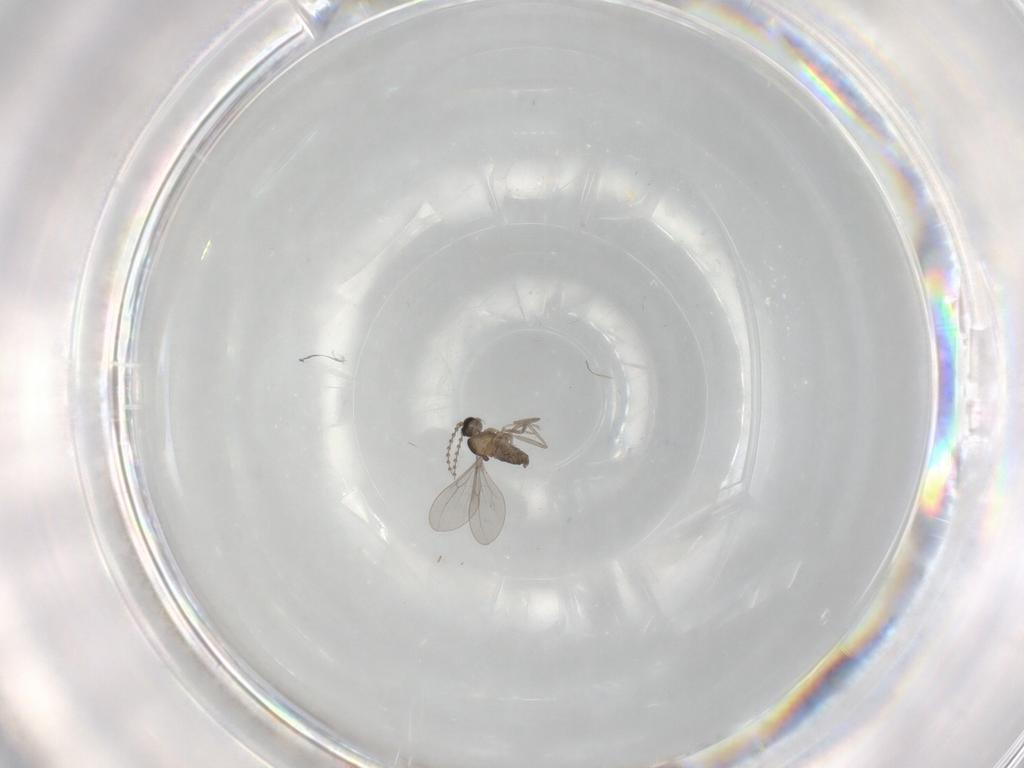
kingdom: Animalia
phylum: Arthropoda
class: Insecta
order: Diptera
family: Cecidomyiidae
